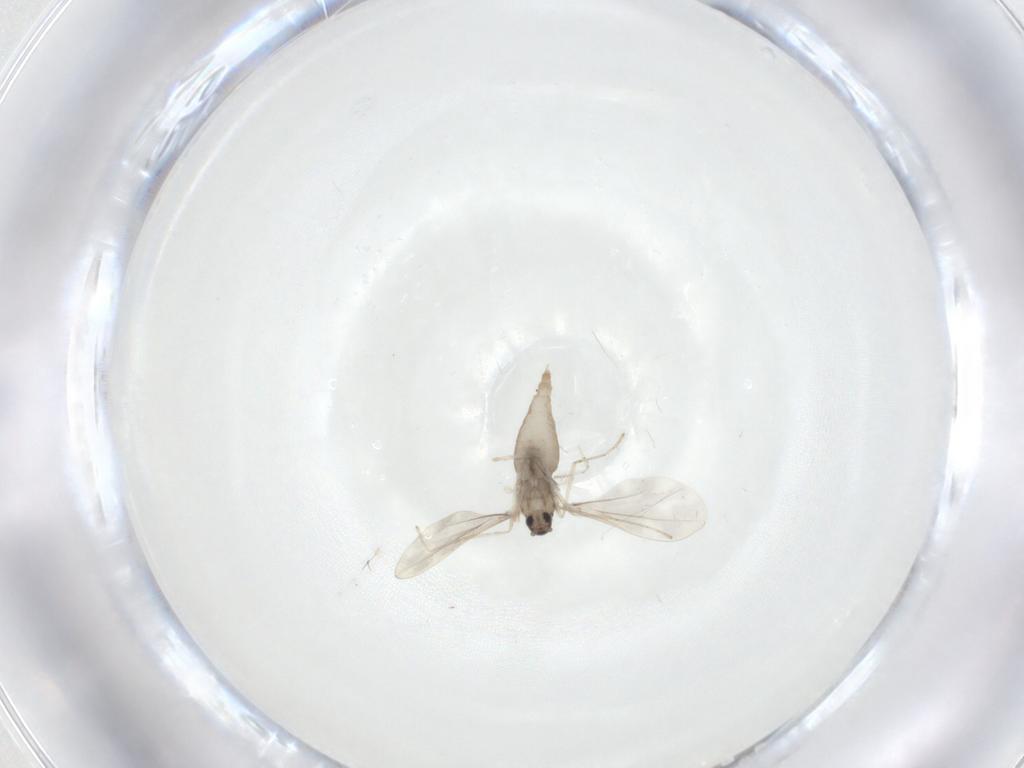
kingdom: Animalia
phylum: Arthropoda
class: Insecta
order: Diptera
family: Cecidomyiidae
